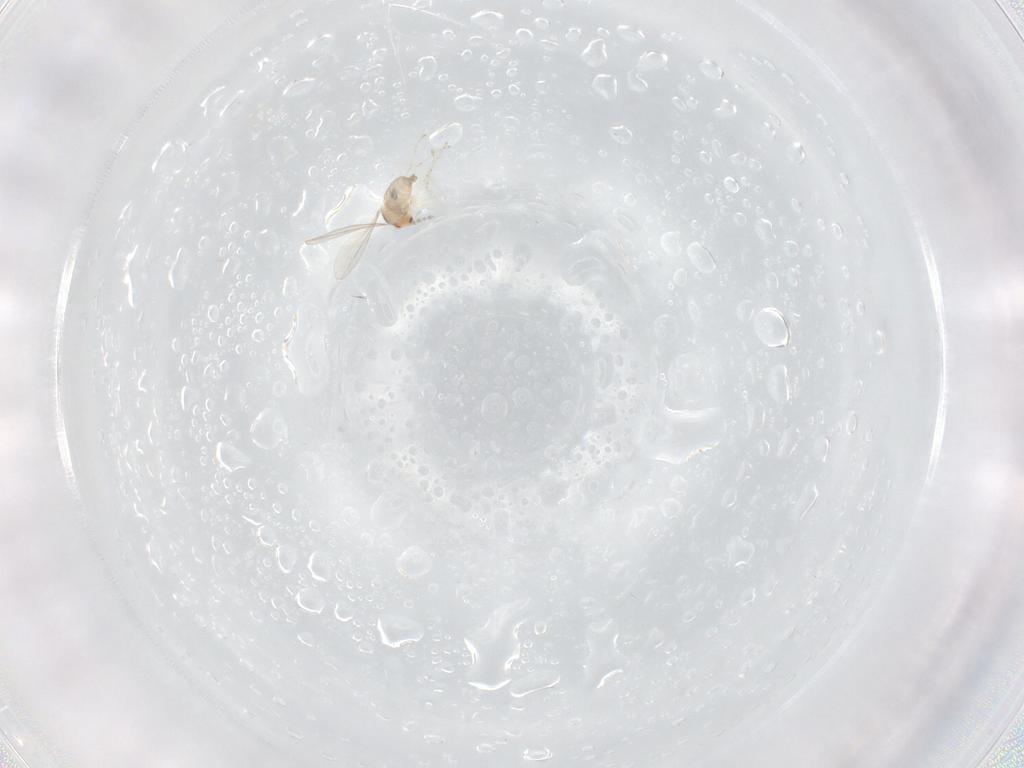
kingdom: Animalia
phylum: Arthropoda
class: Insecta
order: Diptera
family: Cecidomyiidae
